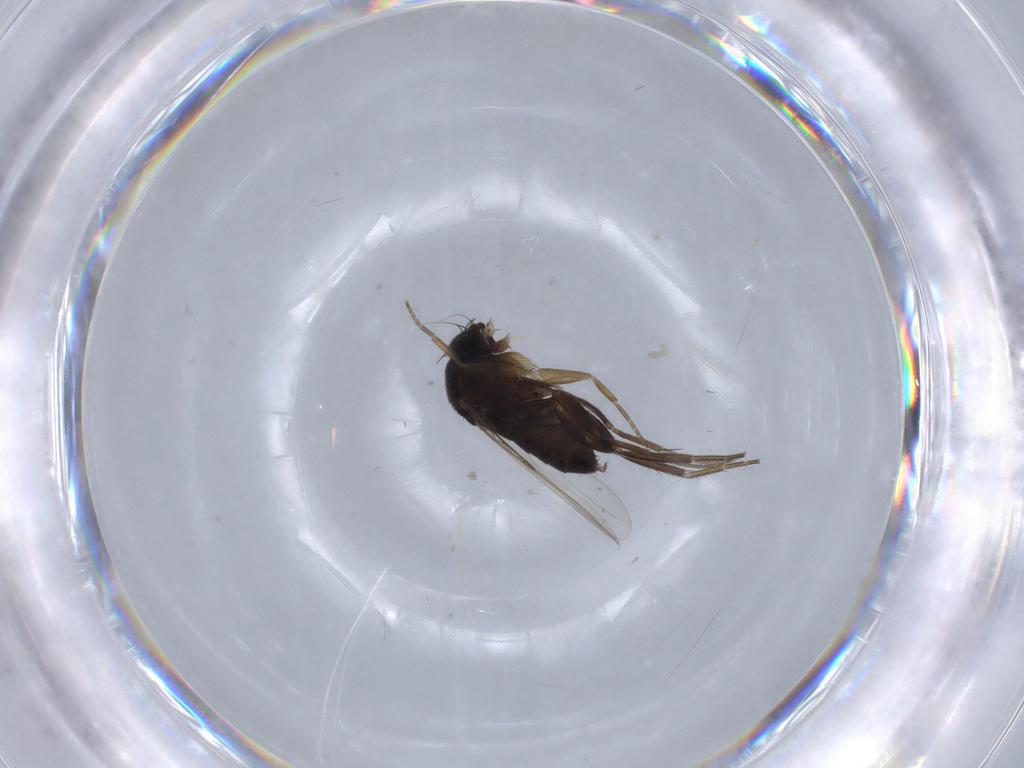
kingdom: Animalia
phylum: Arthropoda
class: Insecta
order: Diptera
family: Phoridae
